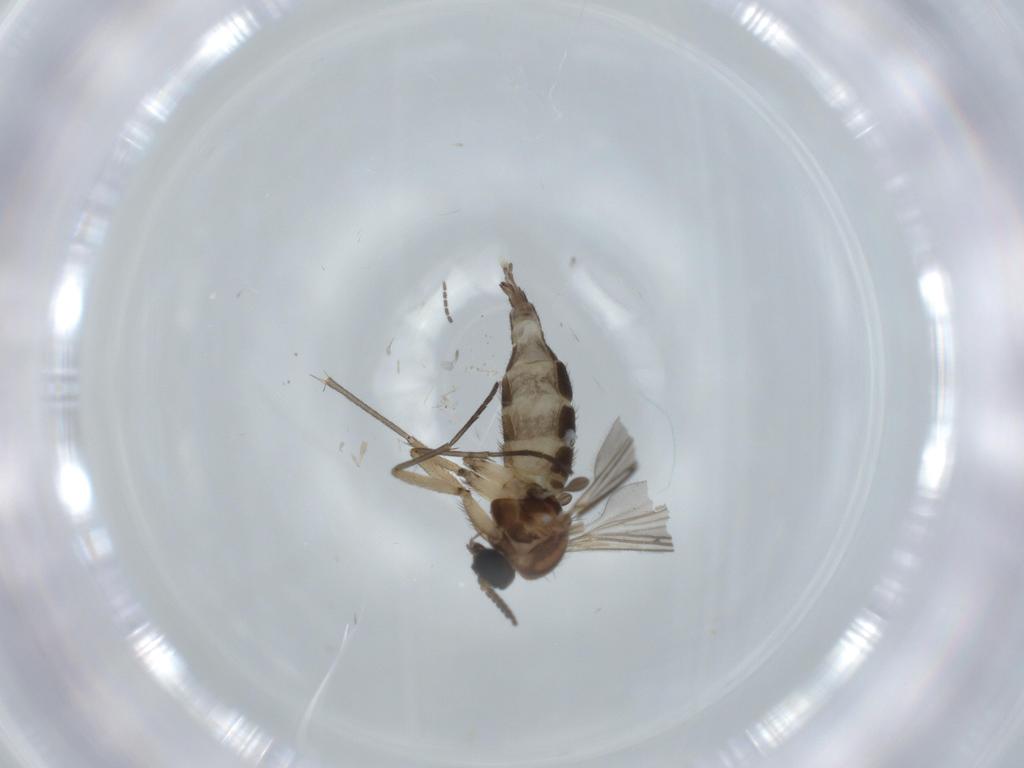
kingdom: Animalia
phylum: Arthropoda
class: Insecta
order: Diptera
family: Sciaridae
